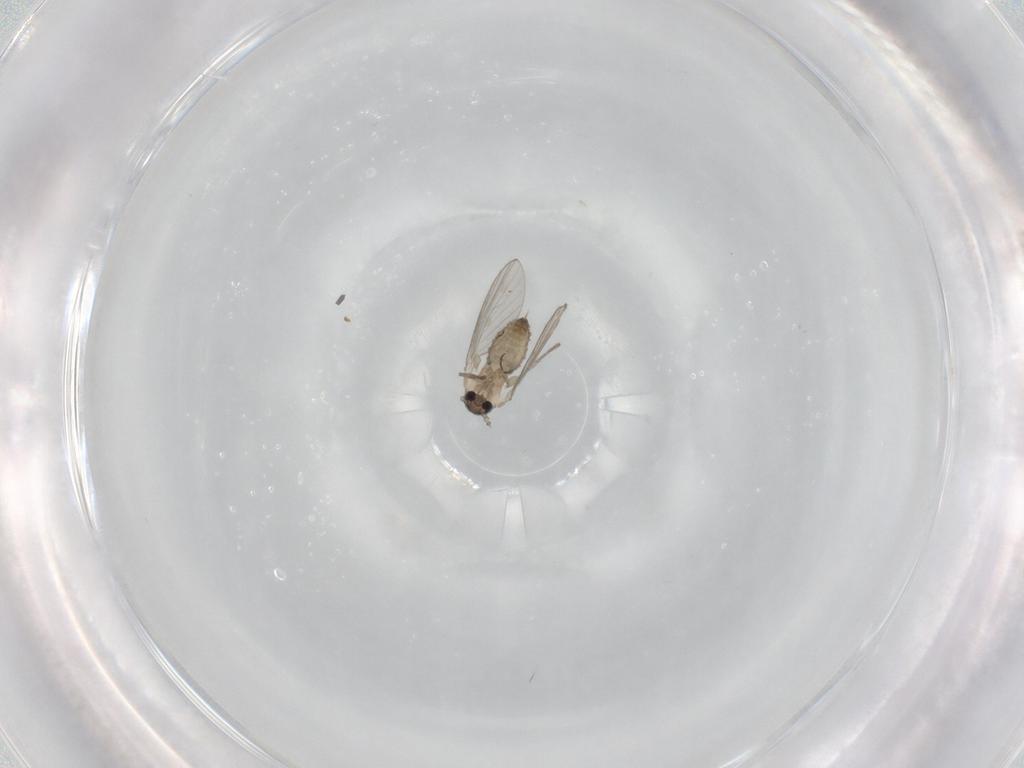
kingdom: Animalia
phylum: Arthropoda
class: Insecta
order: Diptera
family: Psychodidae
